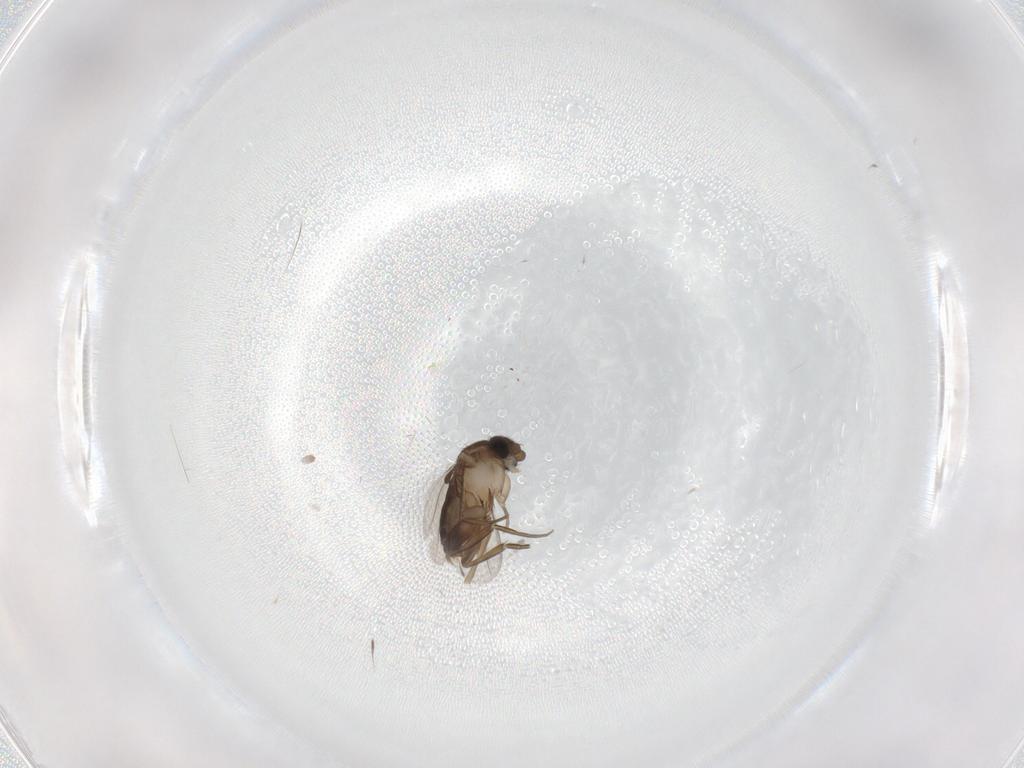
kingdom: Animalia
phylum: Arthropoda
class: Insecta
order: Diptera
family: Phoridae
